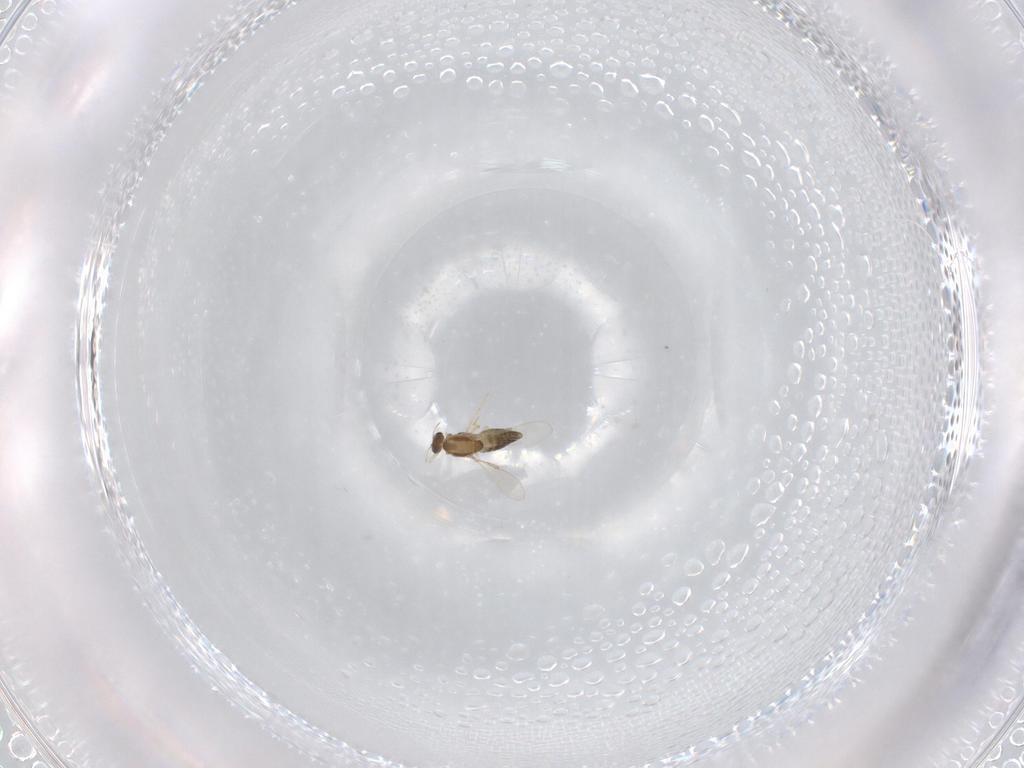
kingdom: Animalia
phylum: Arthropoda
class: Insecta
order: Diptera
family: Chironomidae
